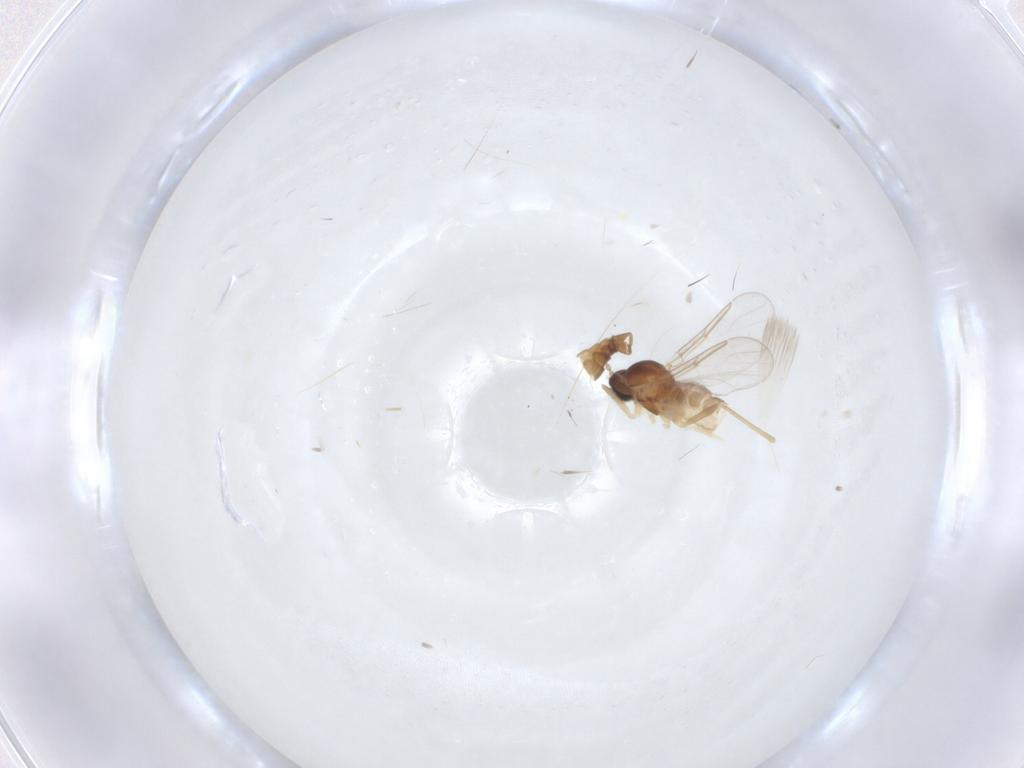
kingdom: Animalia
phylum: Arthropoda
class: Insecta
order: Diptera
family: Cecidomyiidae
